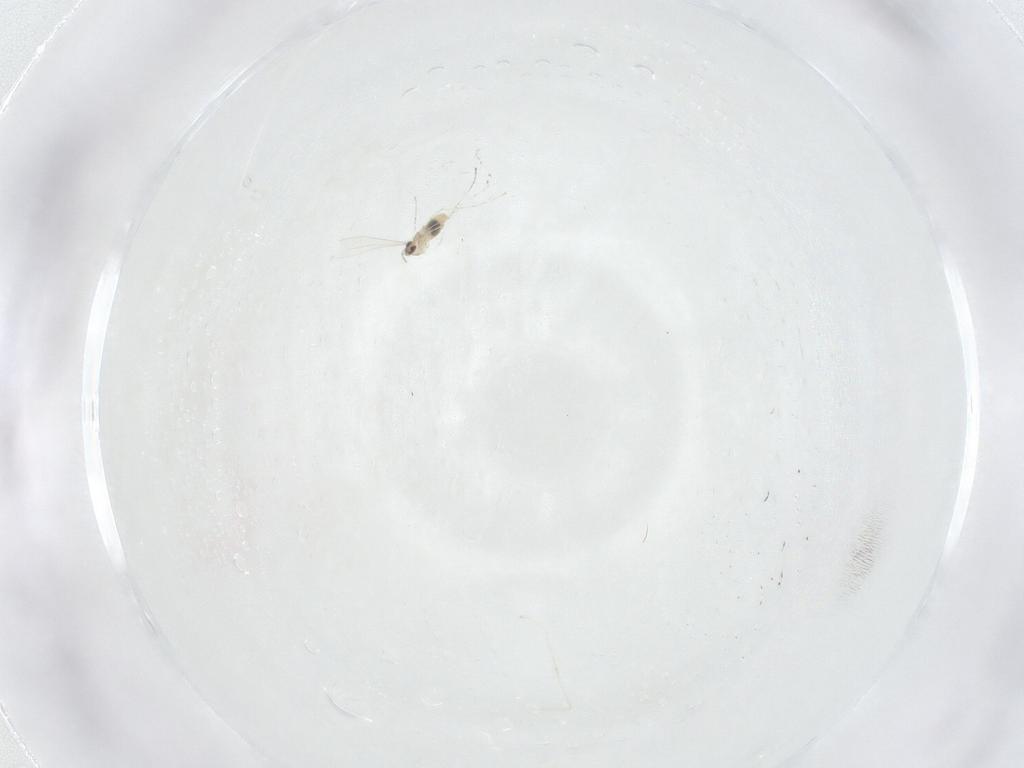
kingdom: Animalia
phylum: Arthropoda
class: Insecta
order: Diptera
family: Cecidomyiidae
